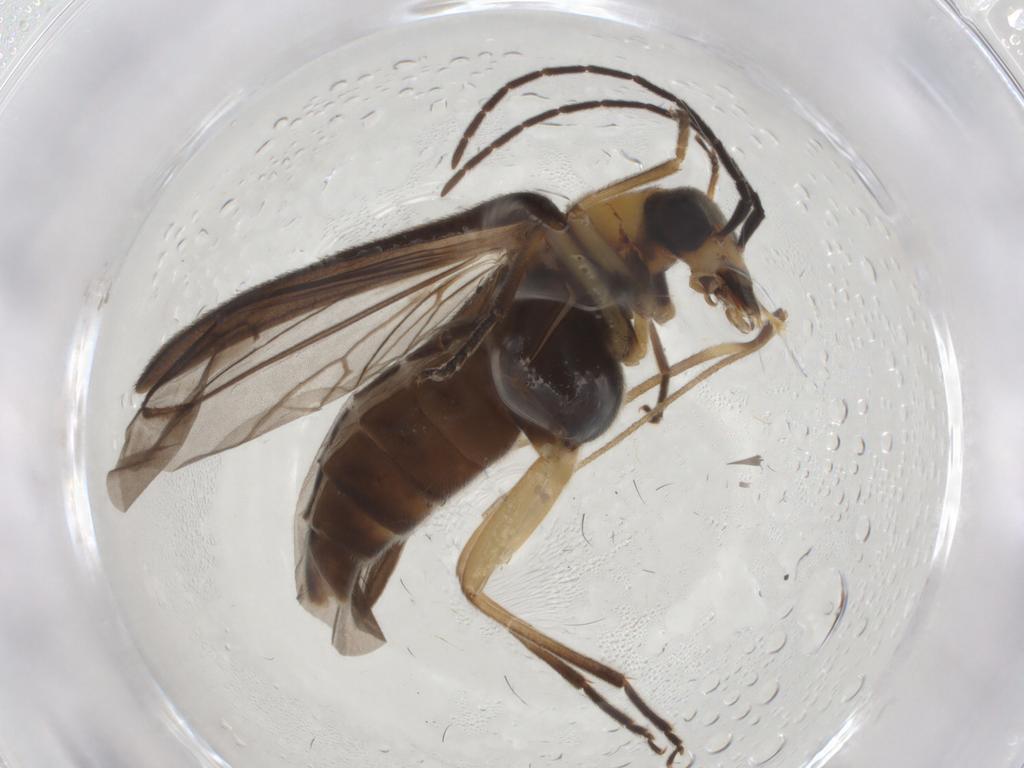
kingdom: Animalia
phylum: Arthropoda
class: Insecta
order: Coleoptera
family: Oedemeridae
